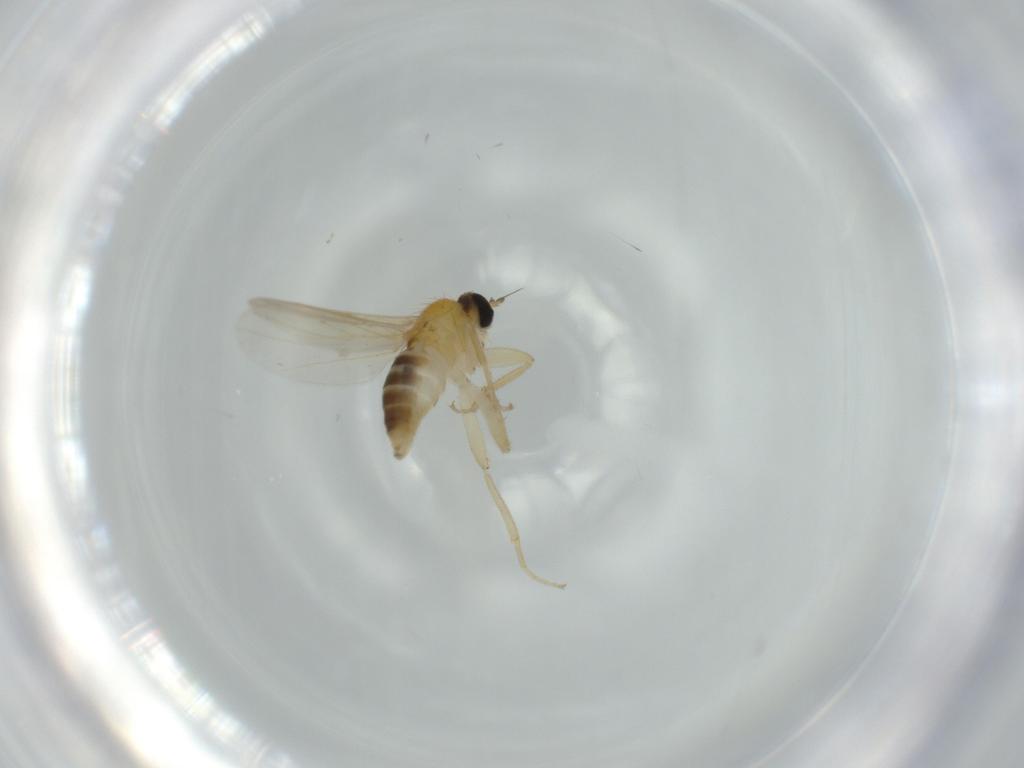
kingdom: Animalia
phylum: Arthropoda
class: Insecta
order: Diptera
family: Hybotidae
